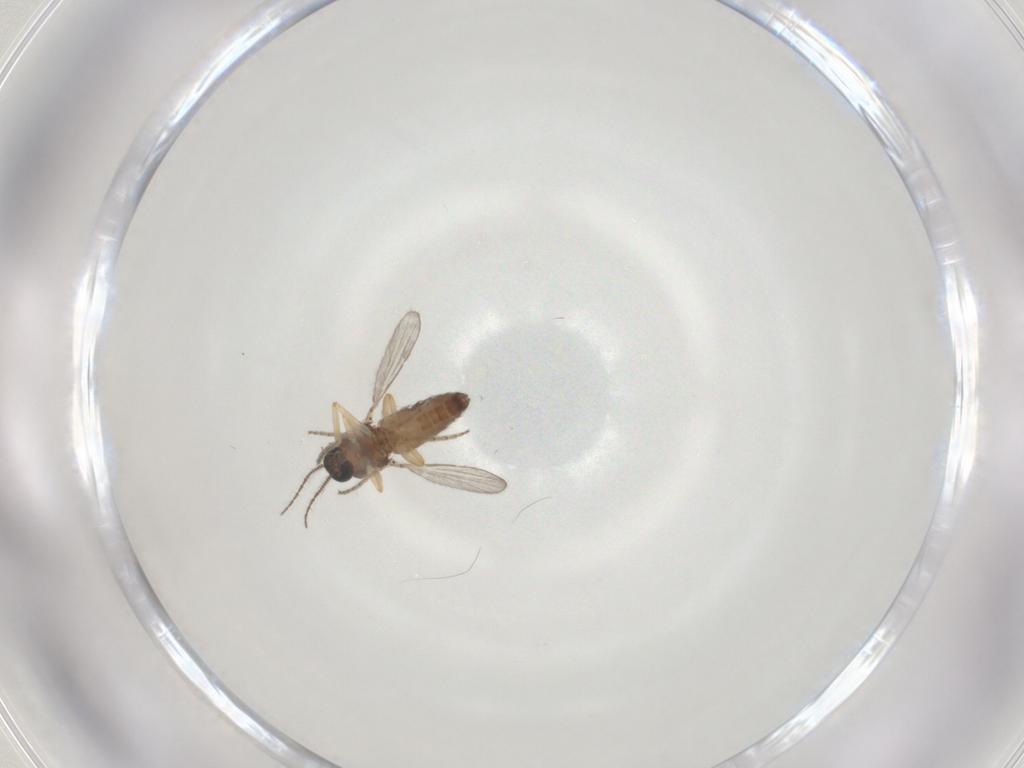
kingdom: Animalia
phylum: Arthropoda
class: Insecta
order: Diptera
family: Ceratopogonidae
